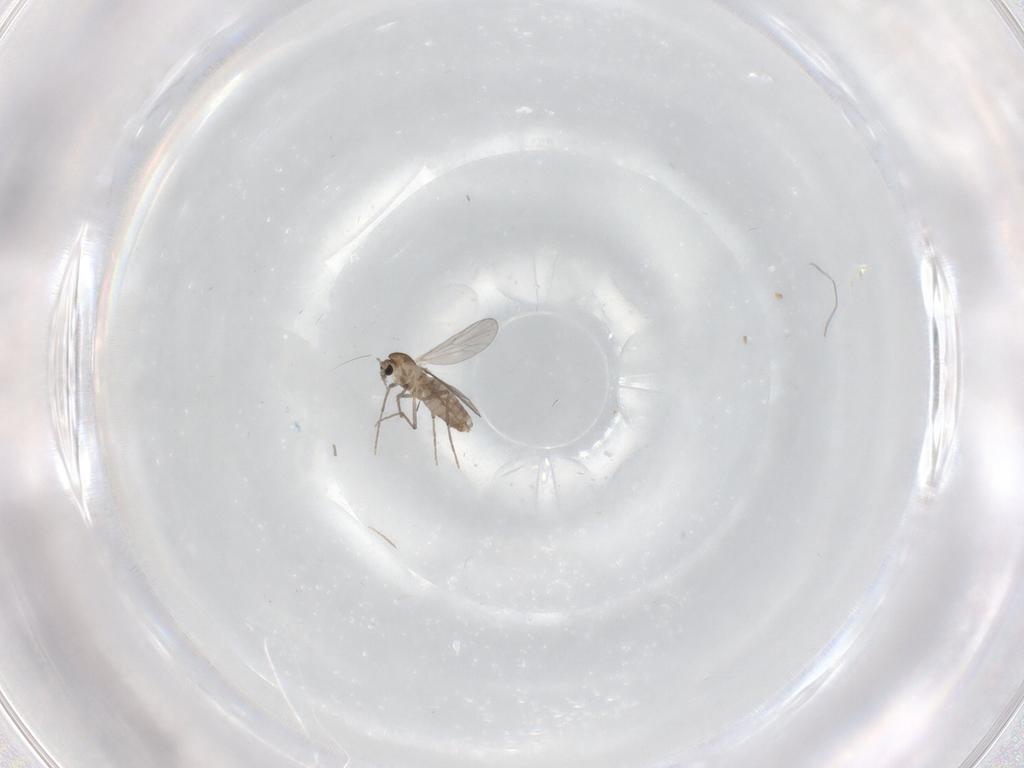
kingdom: Animalia
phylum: Arthropoda
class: Insecta
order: Diptera
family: Chironomidae
